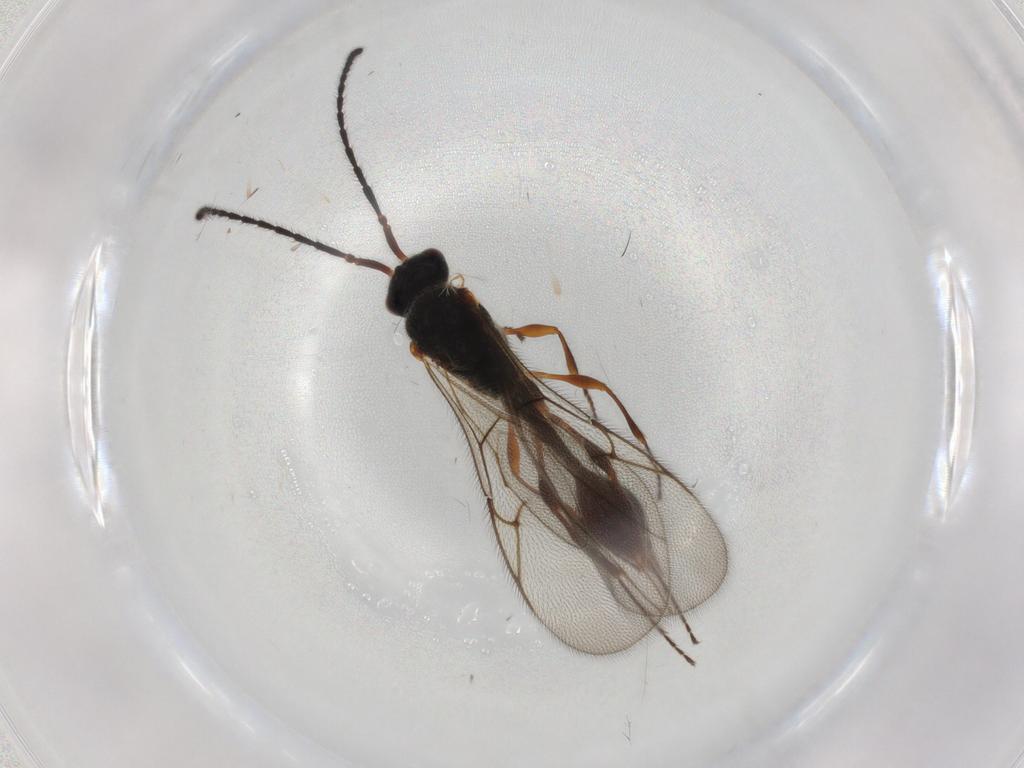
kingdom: Animalia
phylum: Arthropoda
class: Insecta
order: Hymenoptera
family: Diapriidae
